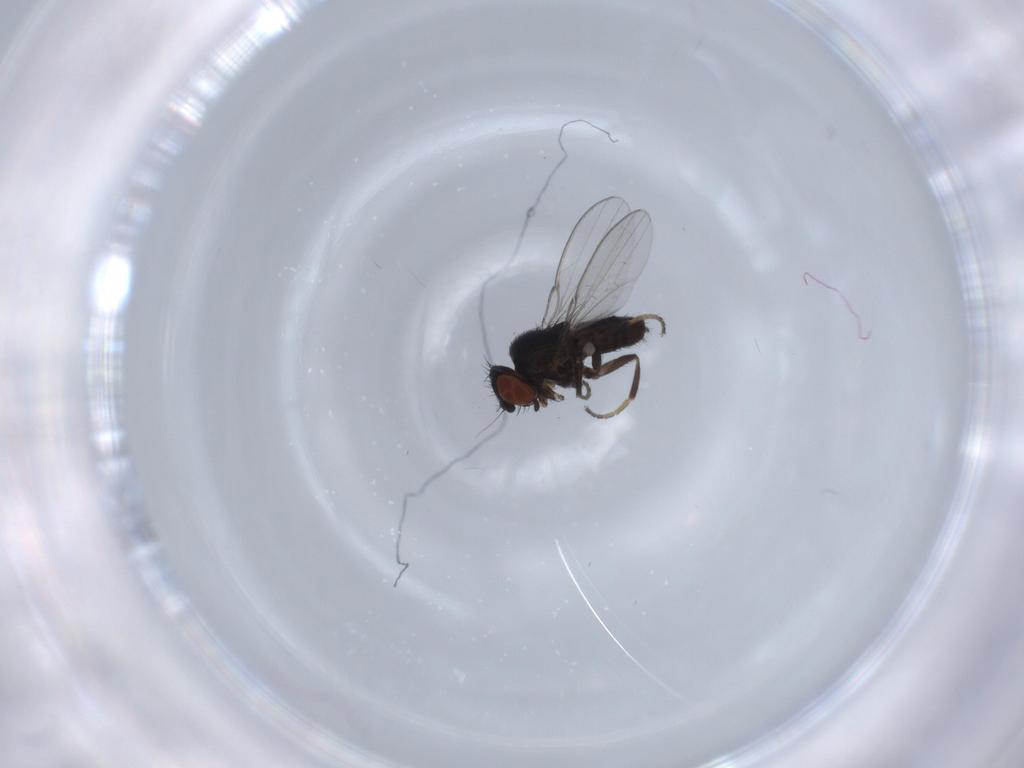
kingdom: Animalia
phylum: Arthropoda
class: Insecta
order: Diptera
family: Milichiidae
